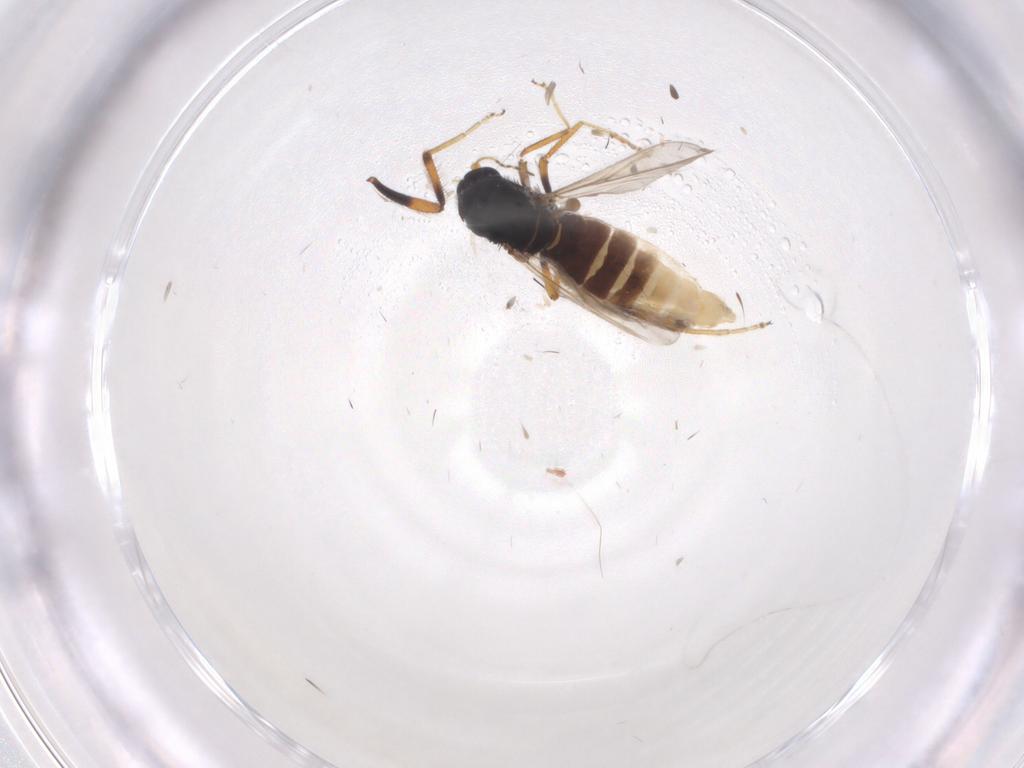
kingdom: Animalia
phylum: Arthropoda
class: Insecta
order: Diptera
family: Ceratopogonidae
